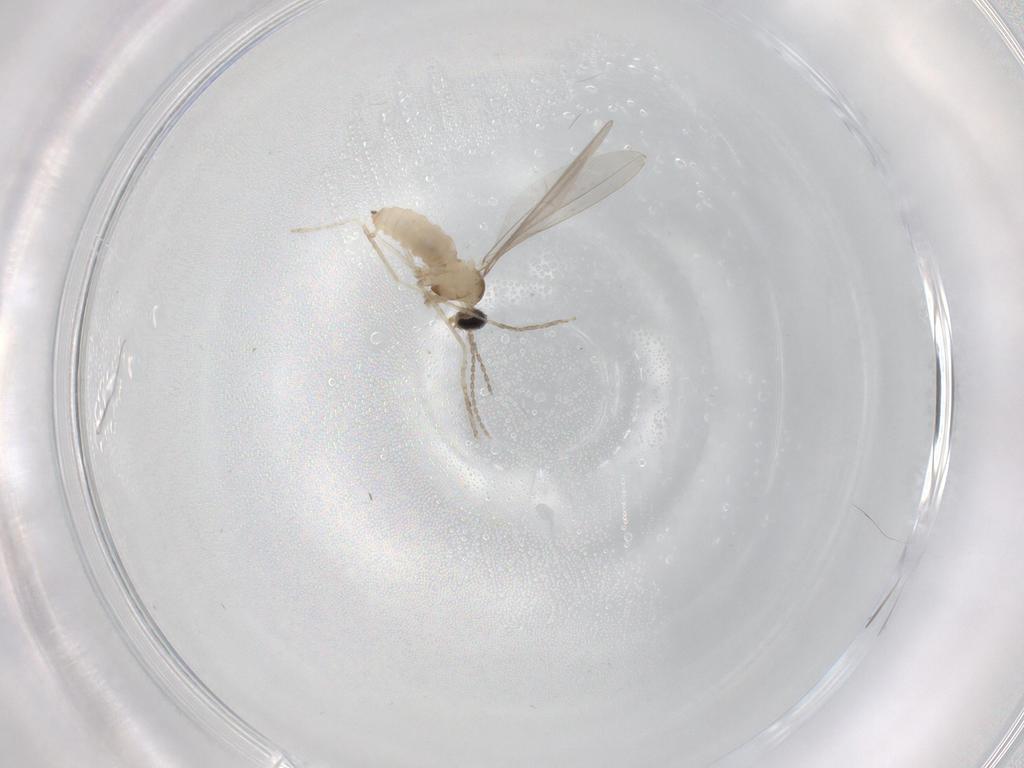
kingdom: Animalia
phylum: Arthropoda
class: Insecta
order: Diptera
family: Cecidomyiidae
